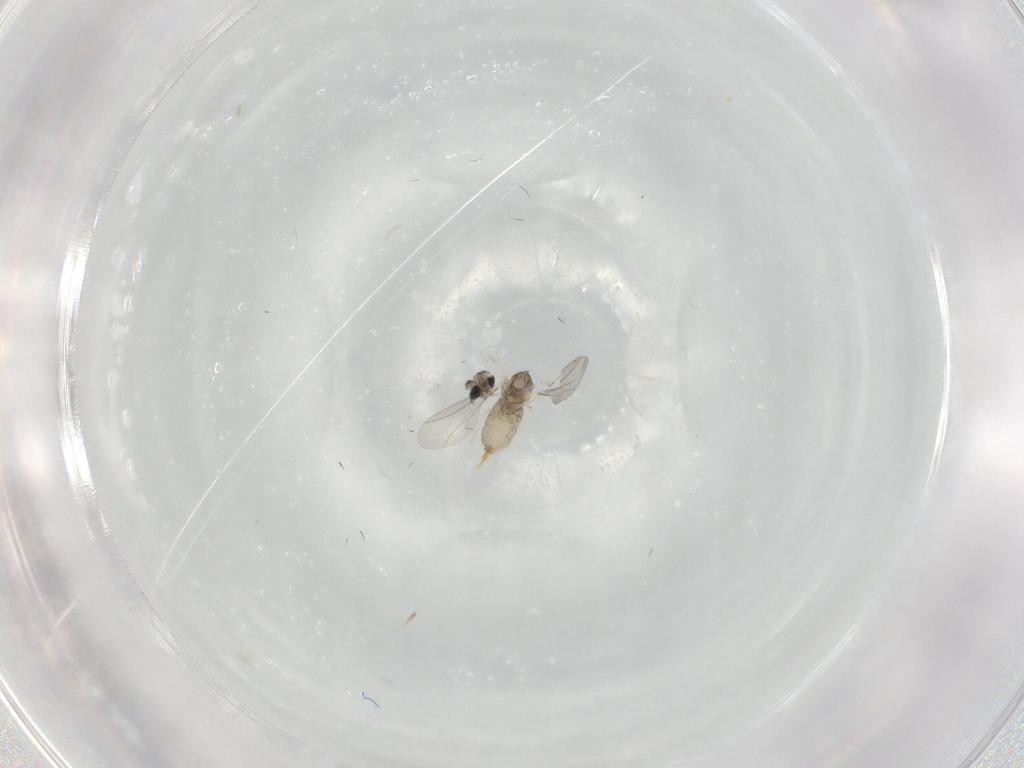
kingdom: Animalia
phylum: Arthropoda
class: Insecta
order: Diptera
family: Cecidomyiidae
